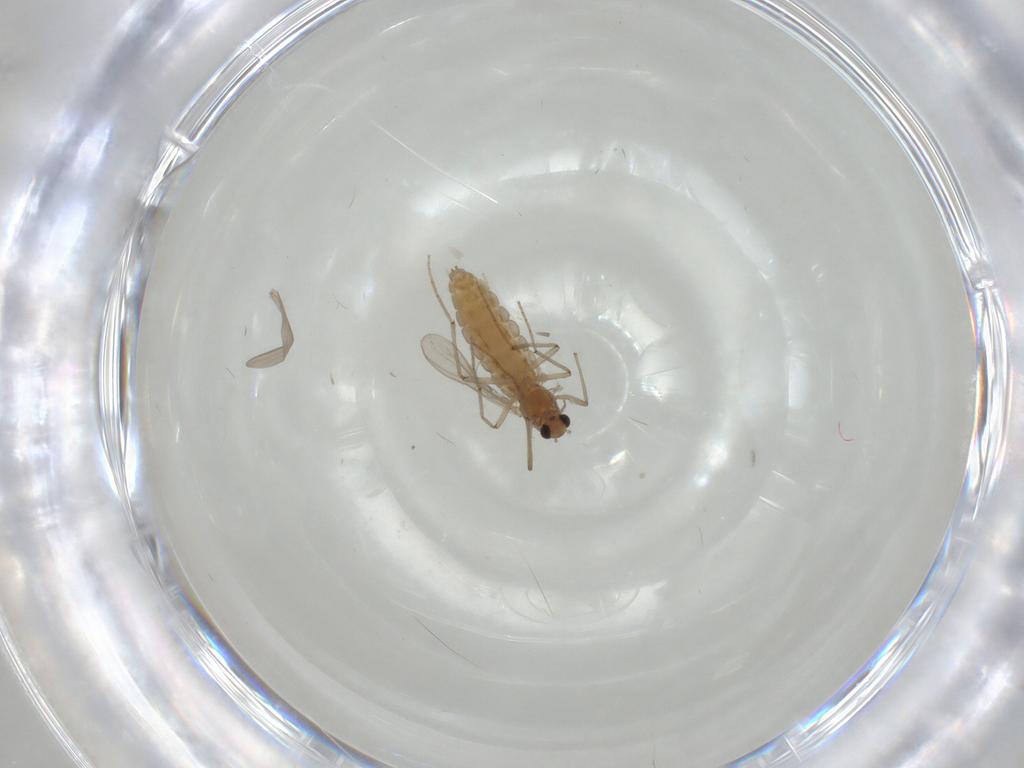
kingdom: Animalia
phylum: Arthropoda
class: Insecta
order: Diptera
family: Chironomidae
